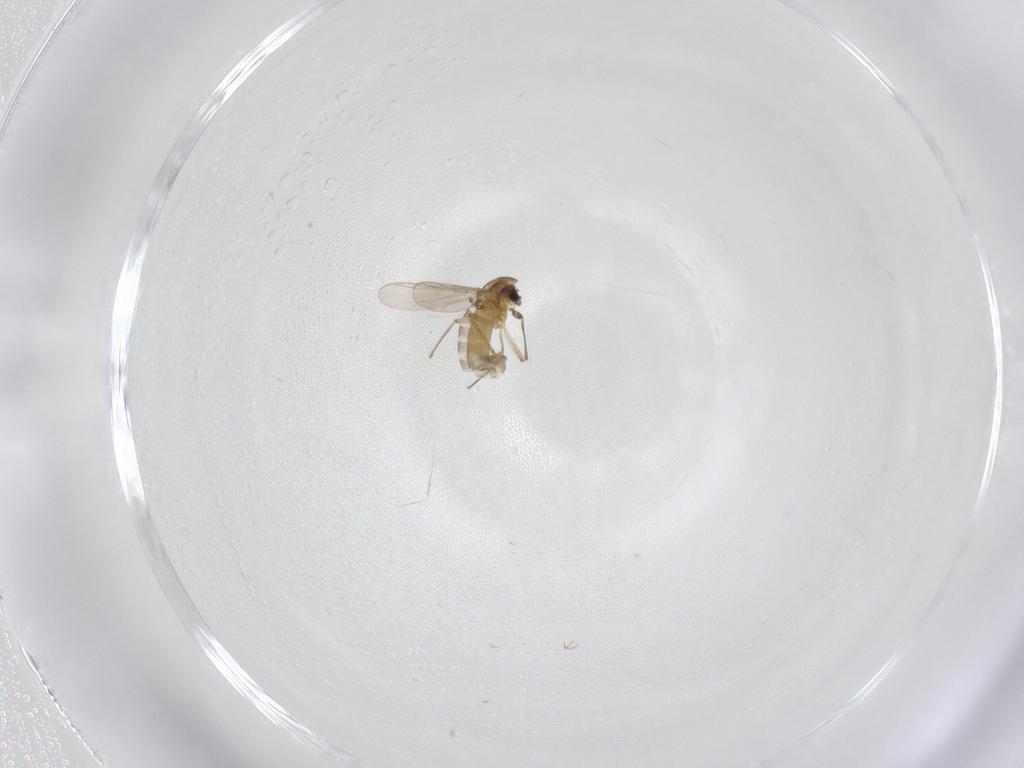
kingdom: Animalia
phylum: Arthropoda
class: Insecta
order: Diptera
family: Chironomidae
